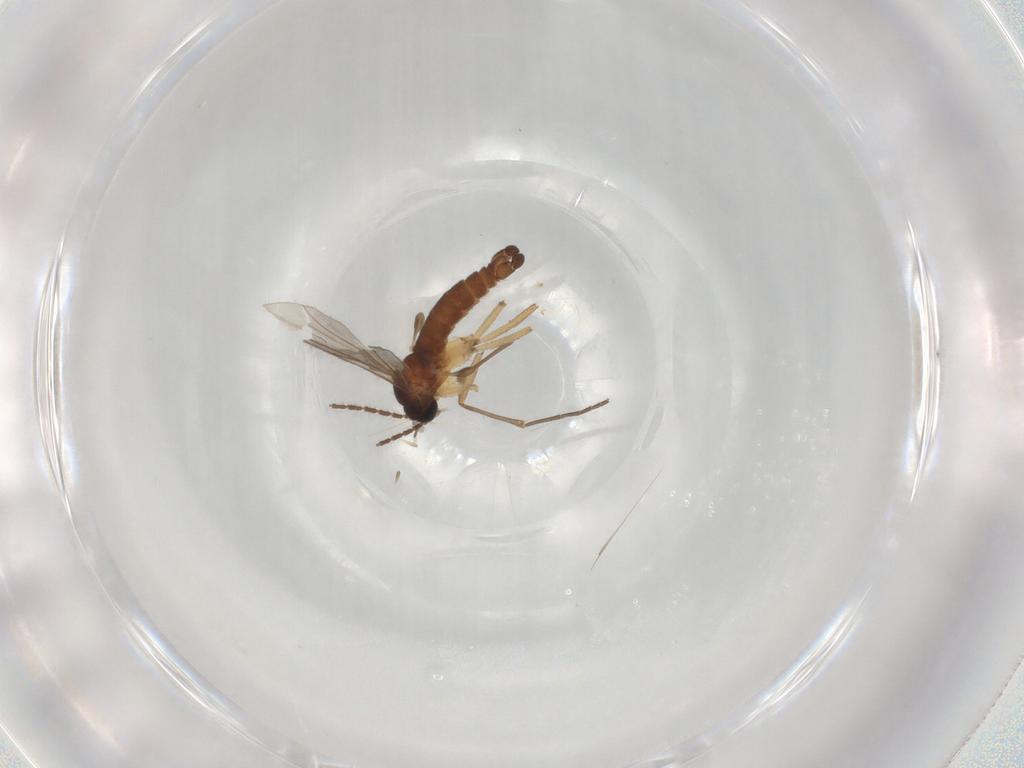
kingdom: Animalia
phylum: Arthropoda
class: Insecta
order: Diptera
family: Sciaridae
